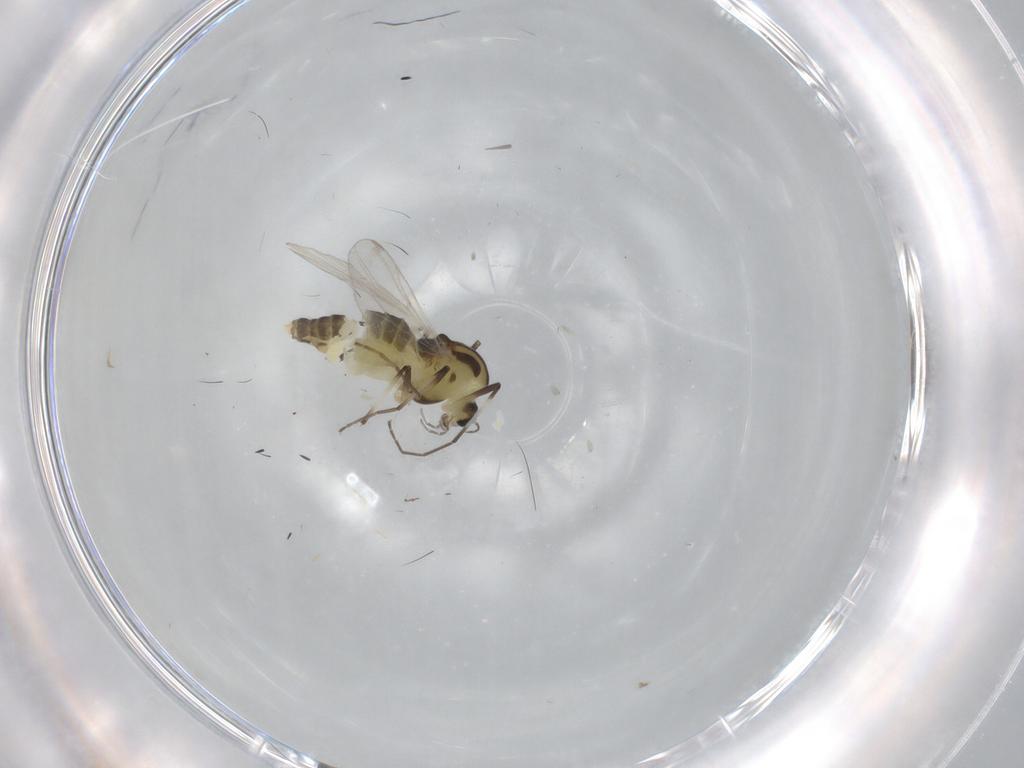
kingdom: Animalia
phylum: Arthropoda
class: Insecta
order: Diptera
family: Chironomidae
